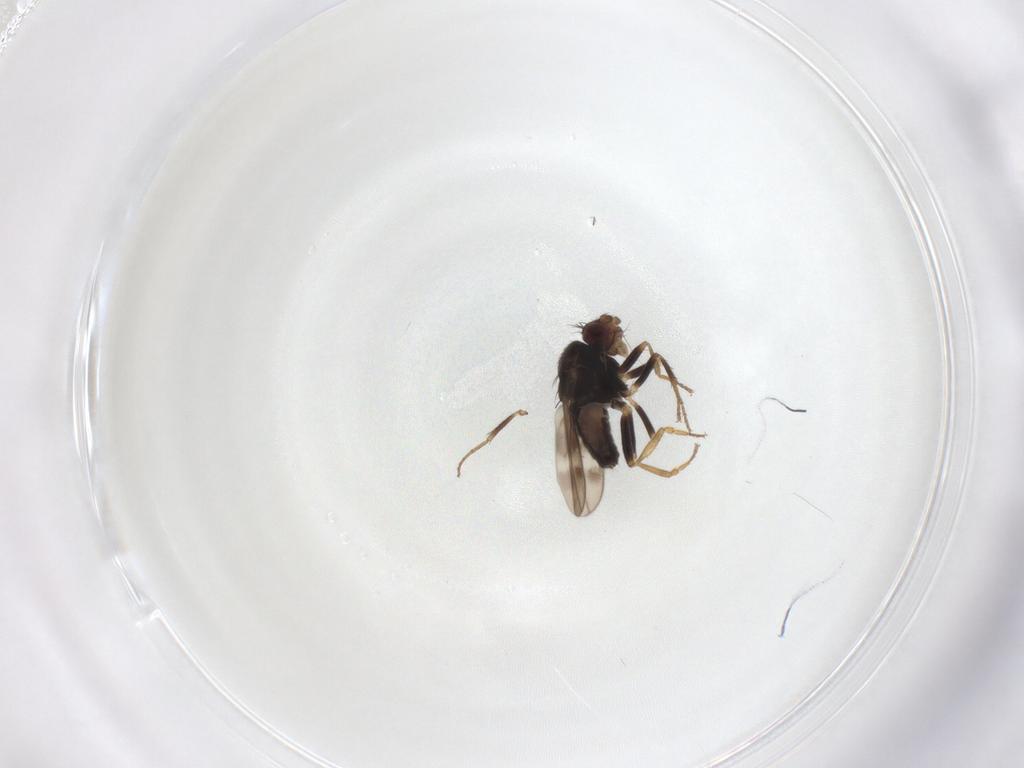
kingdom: Animalia
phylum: Arthropoda
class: Insecta
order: Diptera
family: Sphaeroceridae
